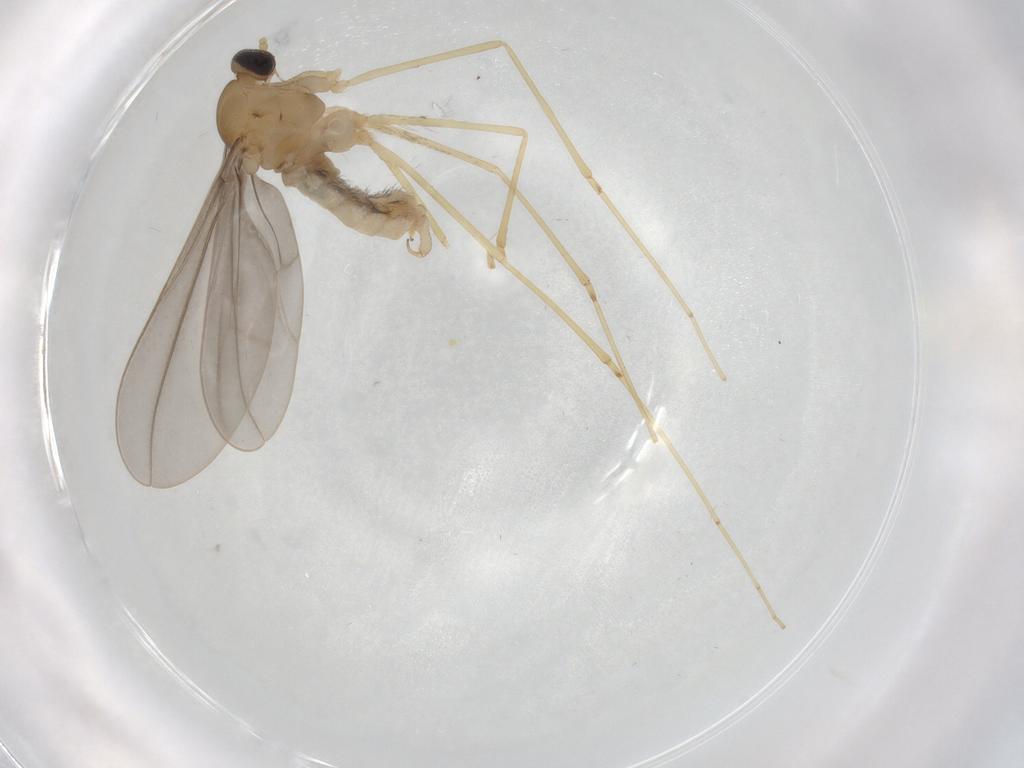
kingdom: Animalia
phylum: Arthropoda
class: Insecta
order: Diptera
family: Cecidomyiidae
